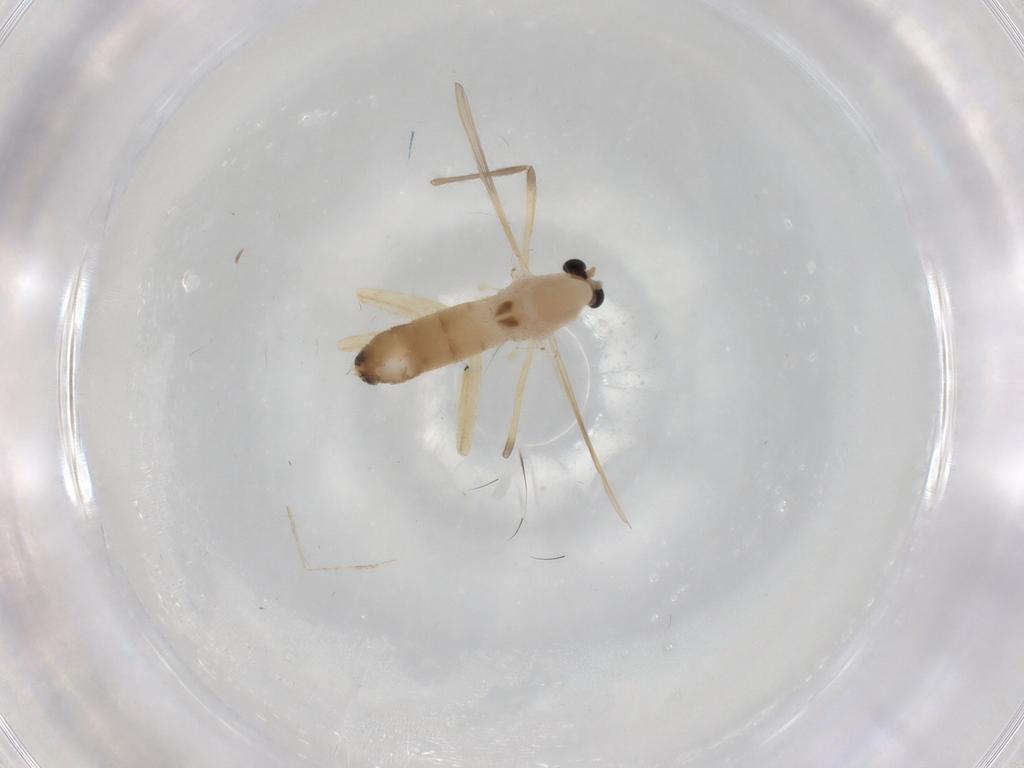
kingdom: Animalia
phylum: Arthropoda
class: Insecta
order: Diptera
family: Chironomidae
